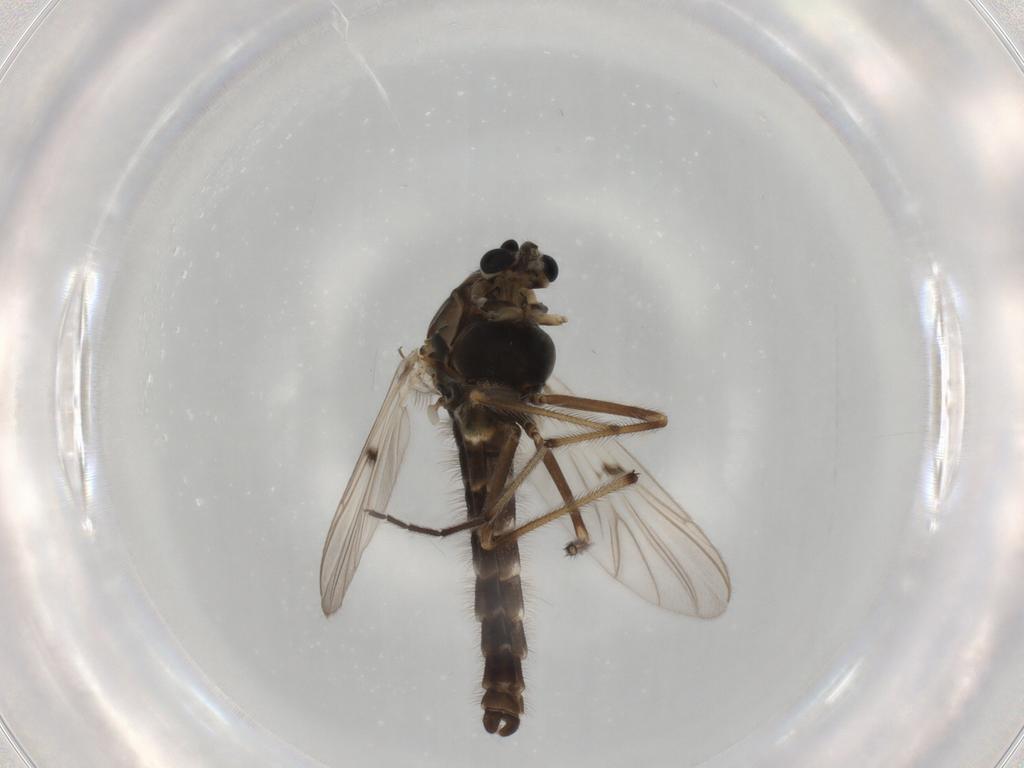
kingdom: Animalia
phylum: Arthropoda
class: Insecta
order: Diptera
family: Chironomidae
